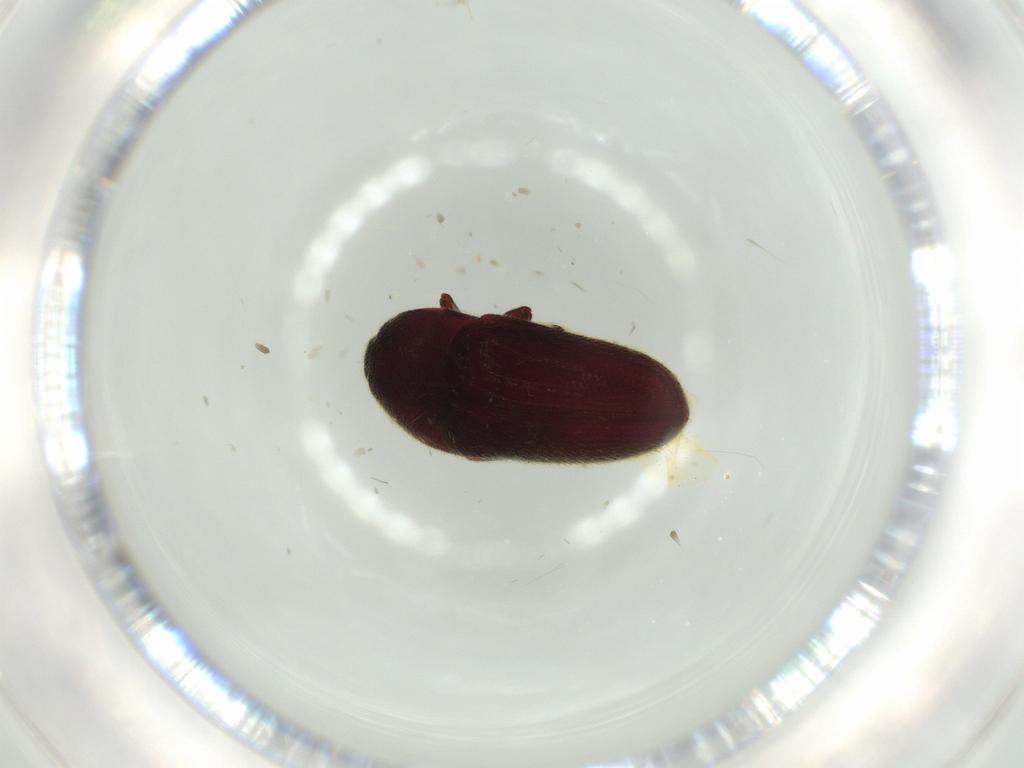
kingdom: Animalia
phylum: Arthropoda
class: Insecta
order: Coleoptera
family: Throscidae
